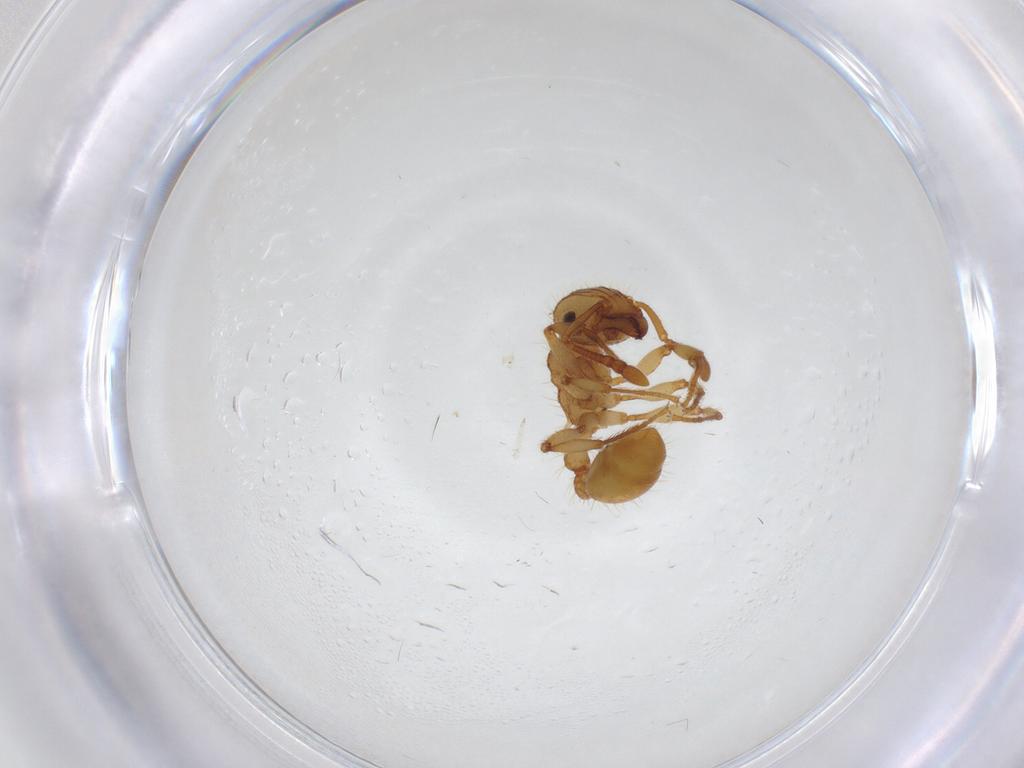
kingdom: Animalia
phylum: Arthropoda
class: Insecta
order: Hymenoptera
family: Formicidae
